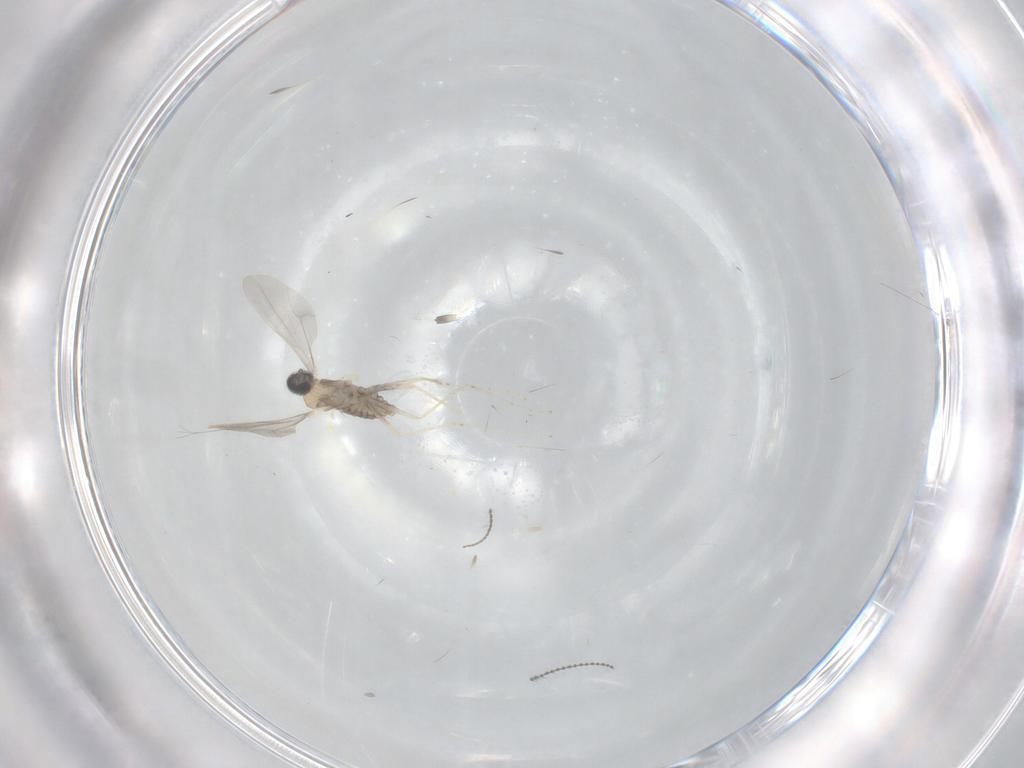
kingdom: Animalia
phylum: Arthropoda
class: Insecta
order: Diptera
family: Cecidomyiidae
